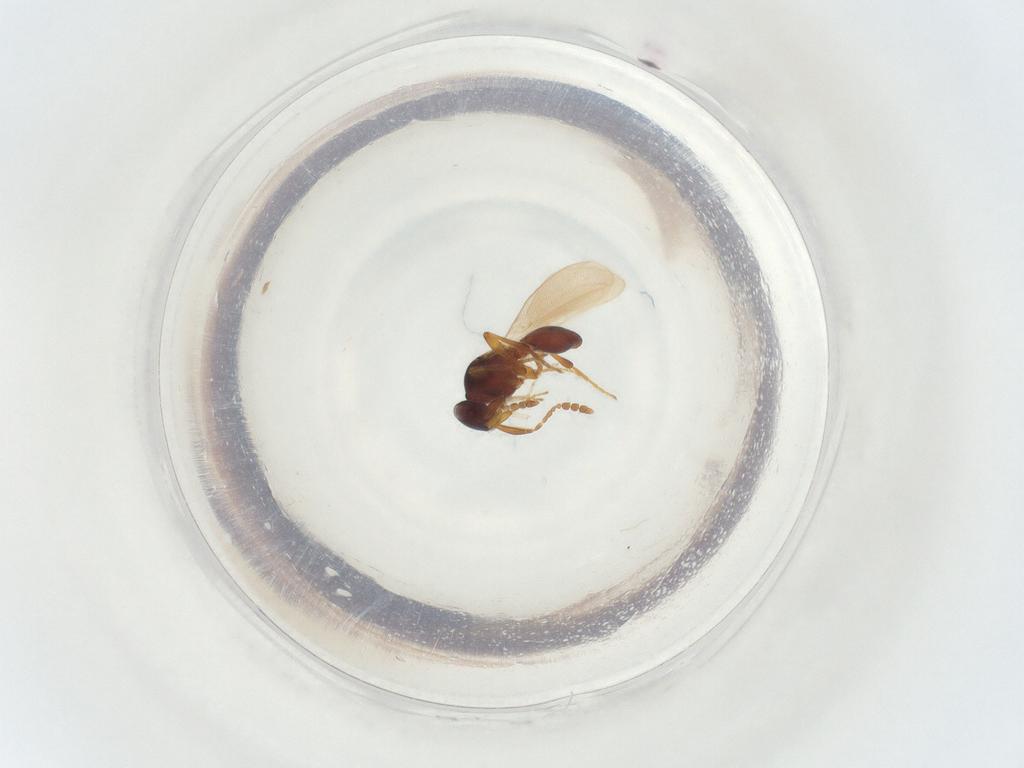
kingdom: Animalia
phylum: Arthropoda
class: Insecta
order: Diptera
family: Chironomidae
